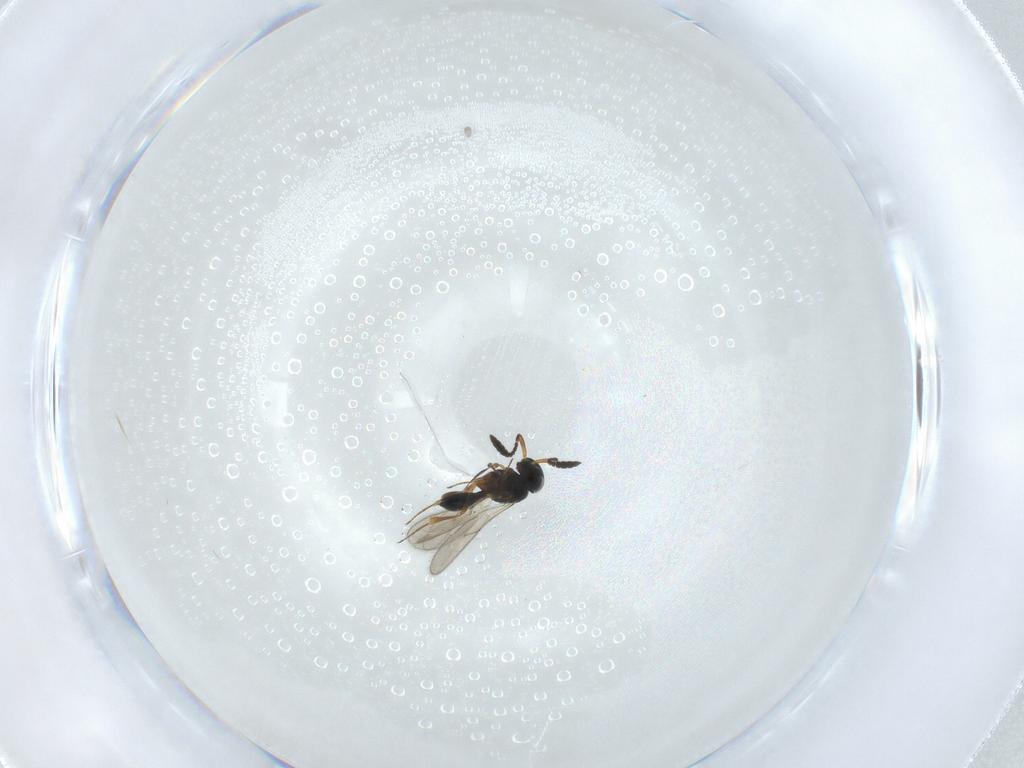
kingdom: Animalia
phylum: Arthropoda
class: Insecta
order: Hymenoptera
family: Scelionidae
